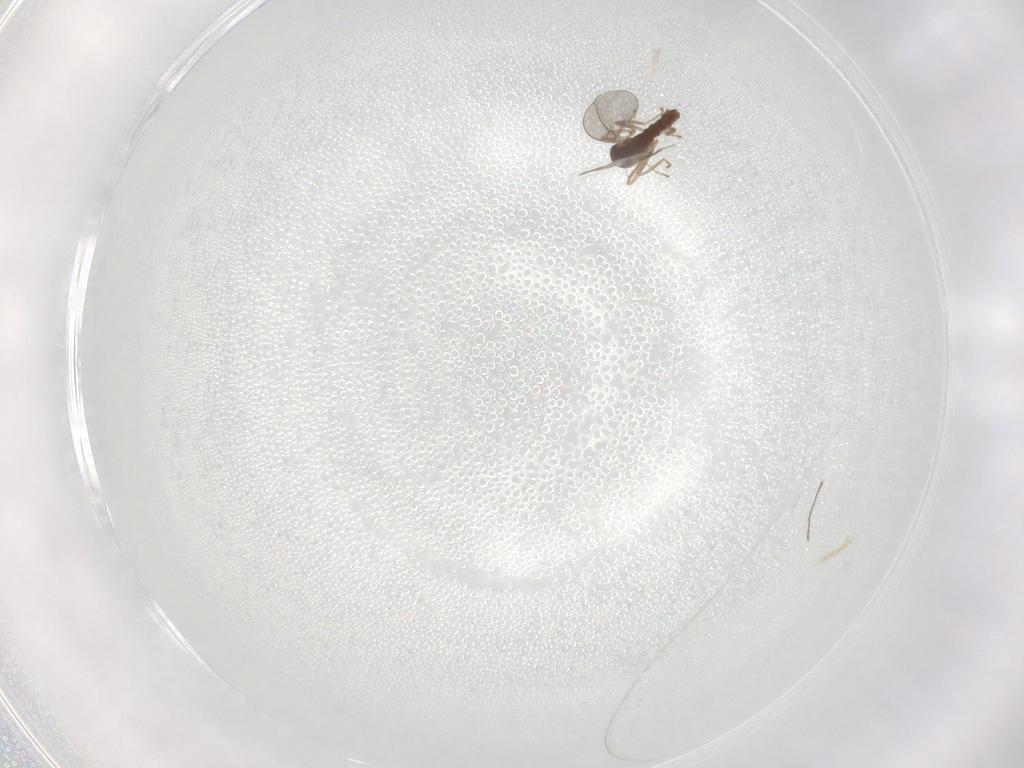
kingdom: Animalia
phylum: Arthropoda
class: Insecta
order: Diptera
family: Cecidomyiidae
